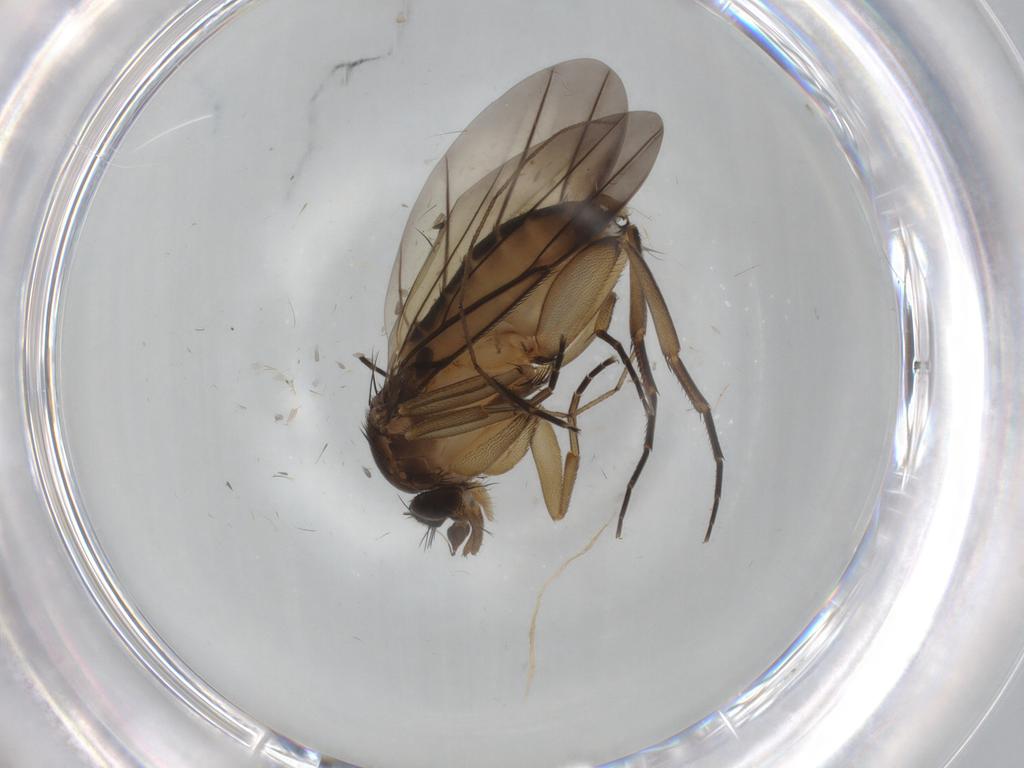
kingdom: Animalia
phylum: Arthropoda
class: Insecta
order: Diptera
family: Limoniidae
